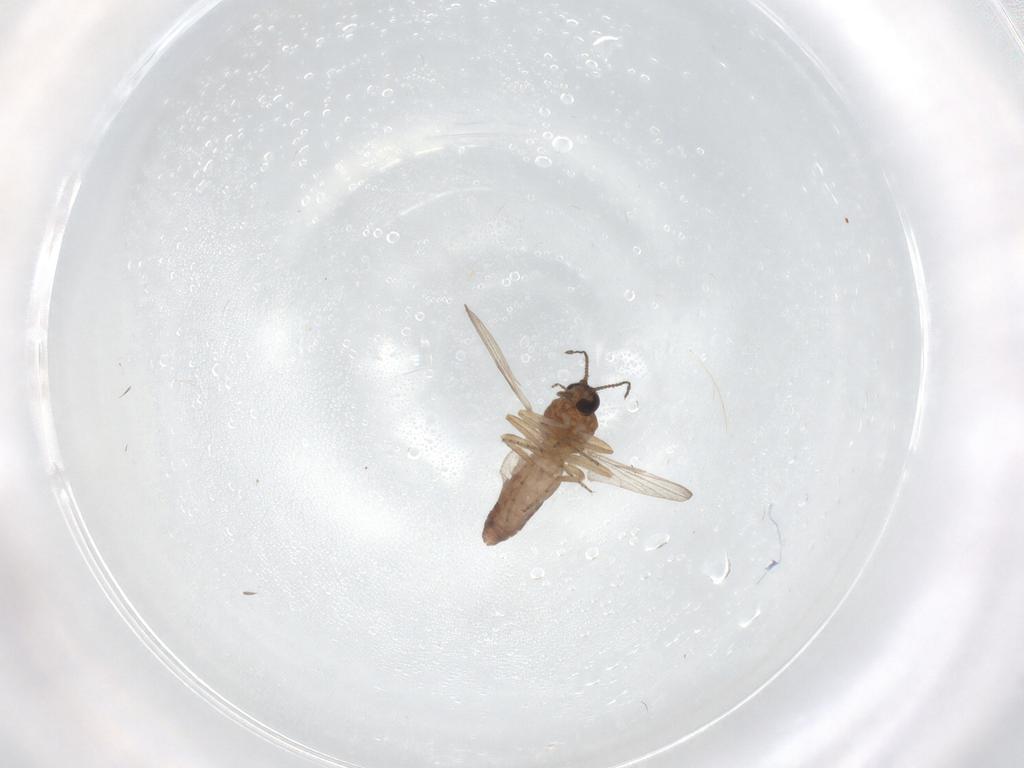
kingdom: Animalia
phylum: Arthropoda
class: Insecta
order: Diptera
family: Ceratopogonidae
